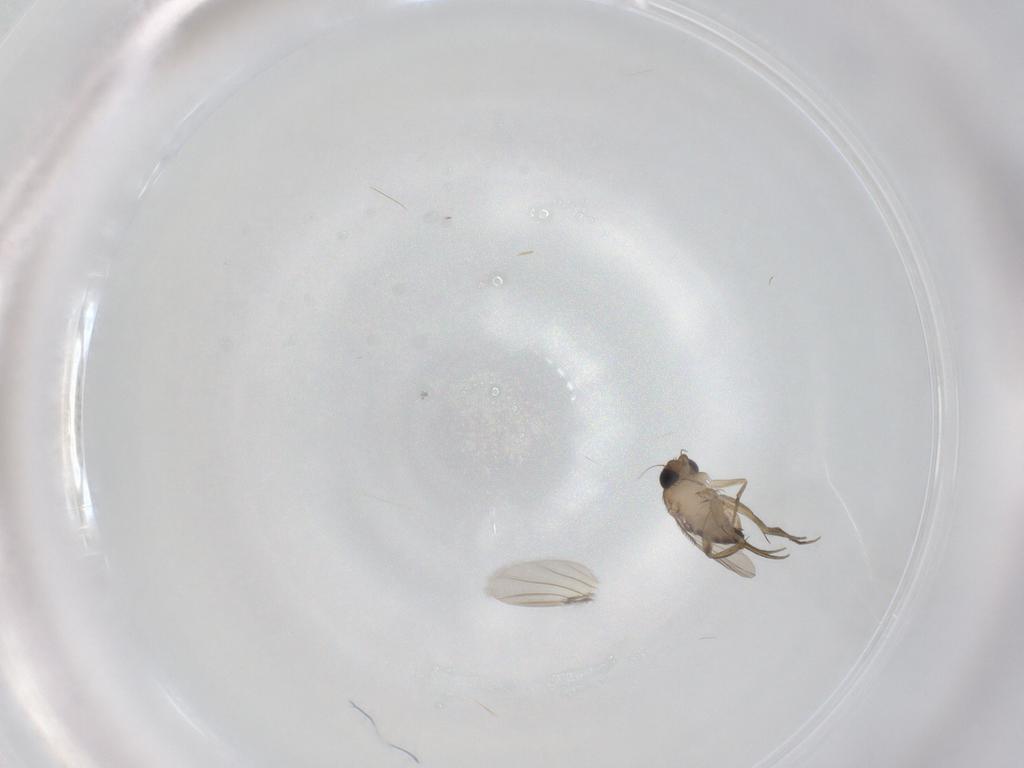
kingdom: Animalia
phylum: Arthropoda
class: Insecta
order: Diptera
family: Phoridae
